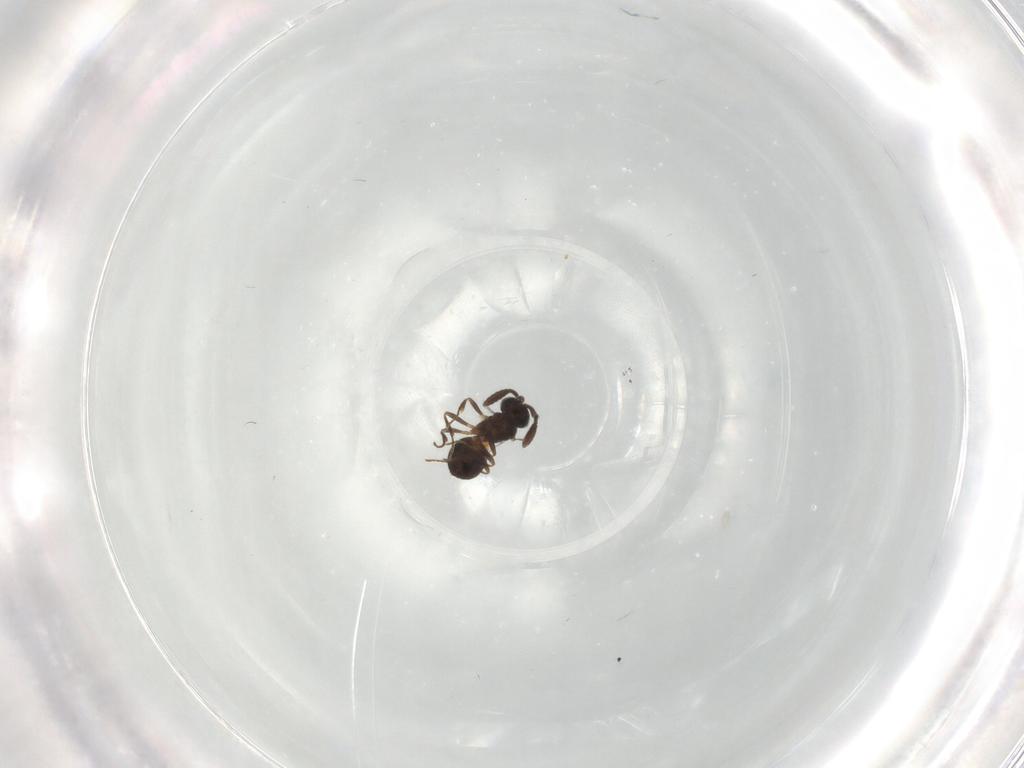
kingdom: Animalia
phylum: Arthropoda
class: Insecta
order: Hymenoptera
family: Scelionidae
